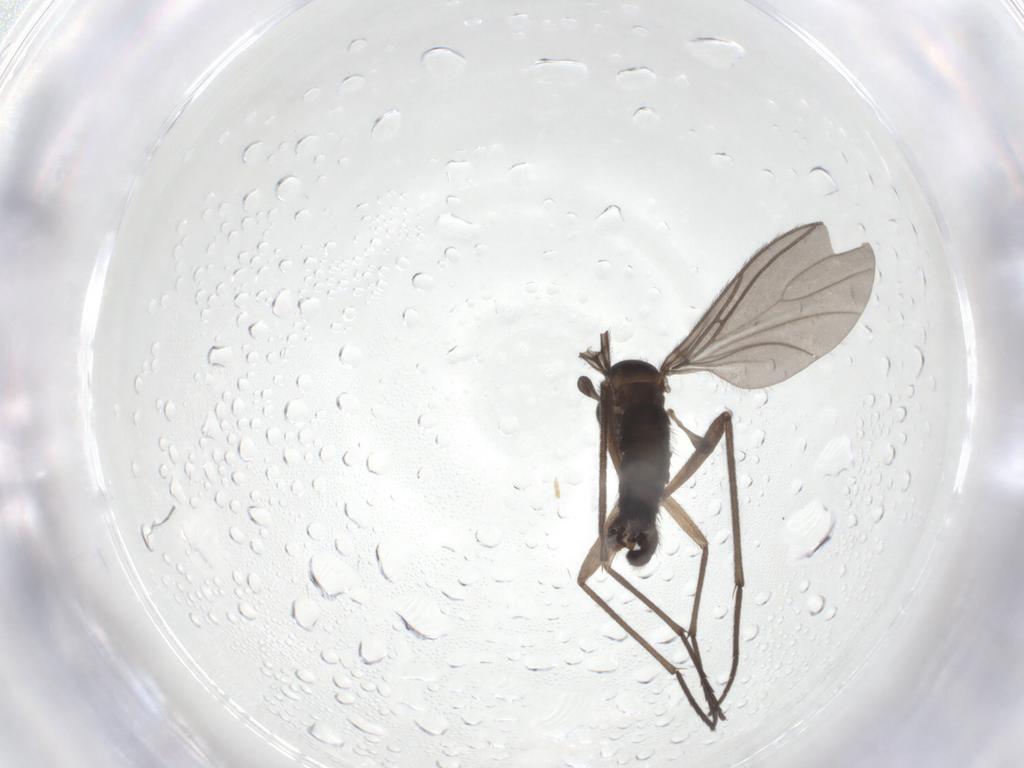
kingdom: Animalia
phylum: Arthropoda
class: Insecta
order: Diptera
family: Sciaridae
